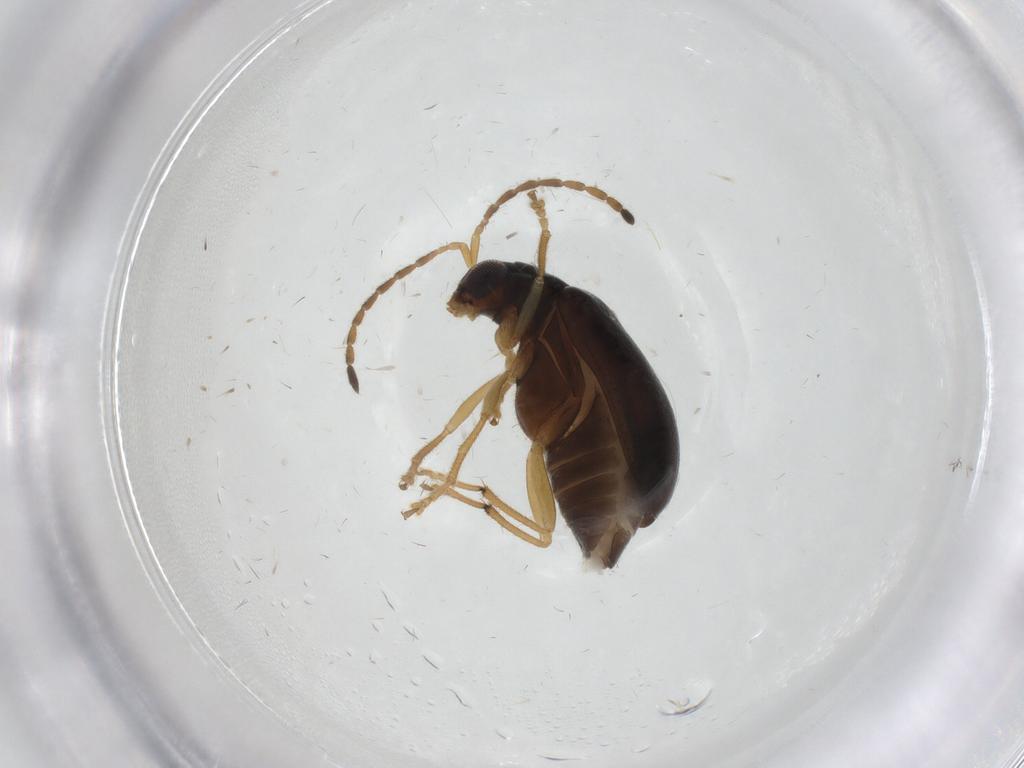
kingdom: Animalia
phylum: Arthropoda
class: Insecta
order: Coleoptera
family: Chrysomelidae
